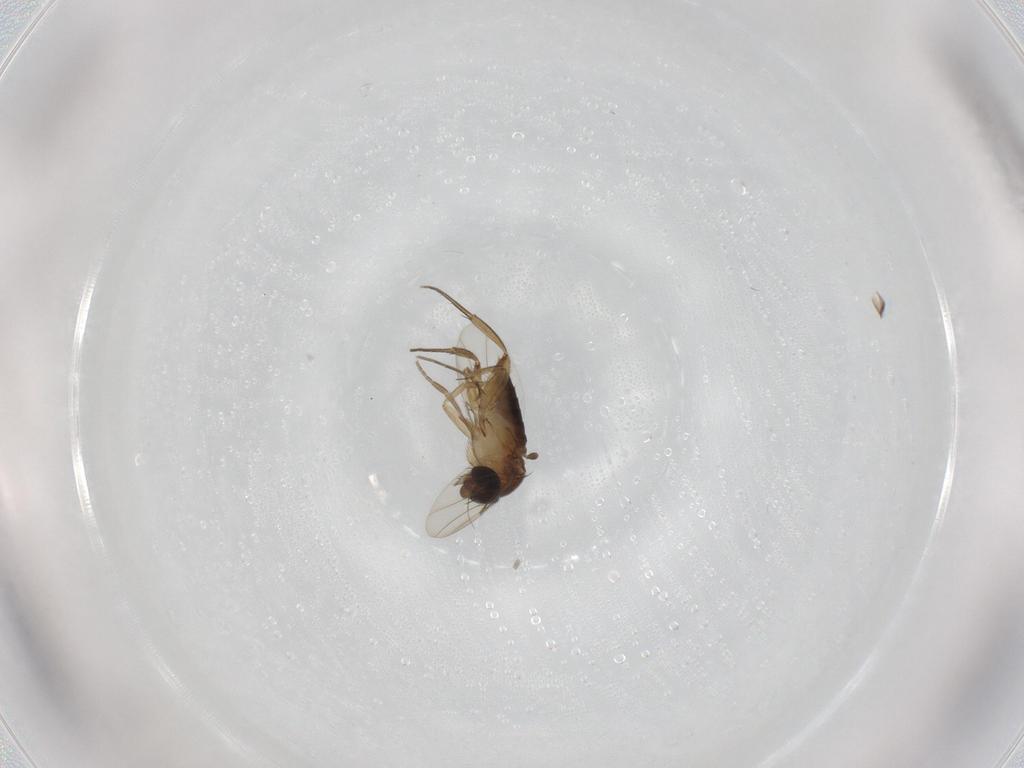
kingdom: Animalia
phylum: Arthropoda
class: Insecta
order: Diptera
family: Phoridae
